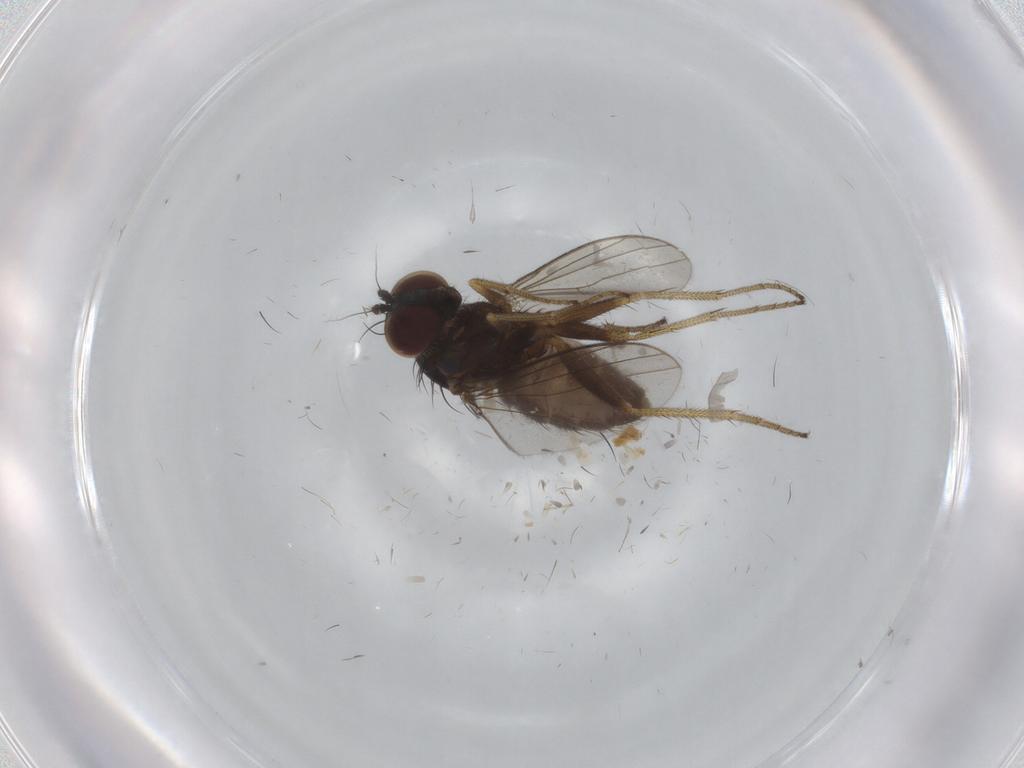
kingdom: Animalia
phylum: Arthropoda
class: Insecta
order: Diptera
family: Dolichopodidae
